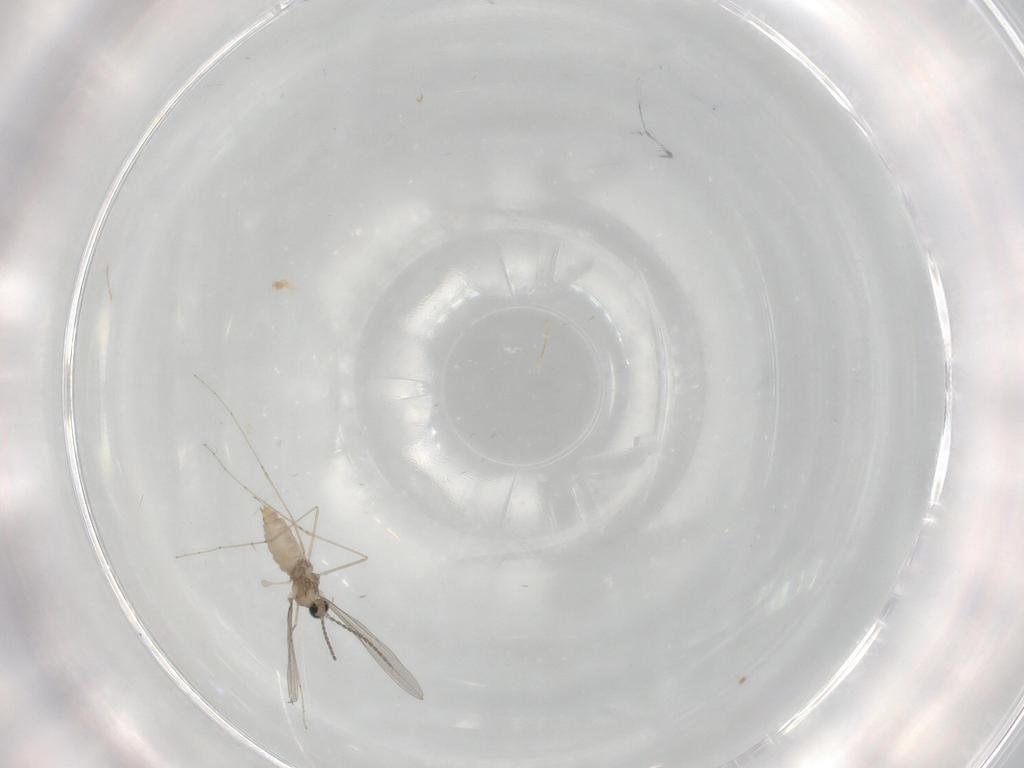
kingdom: Animalia
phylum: Arthropoda
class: Insecta
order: Diptera
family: Cecidomyiidae
